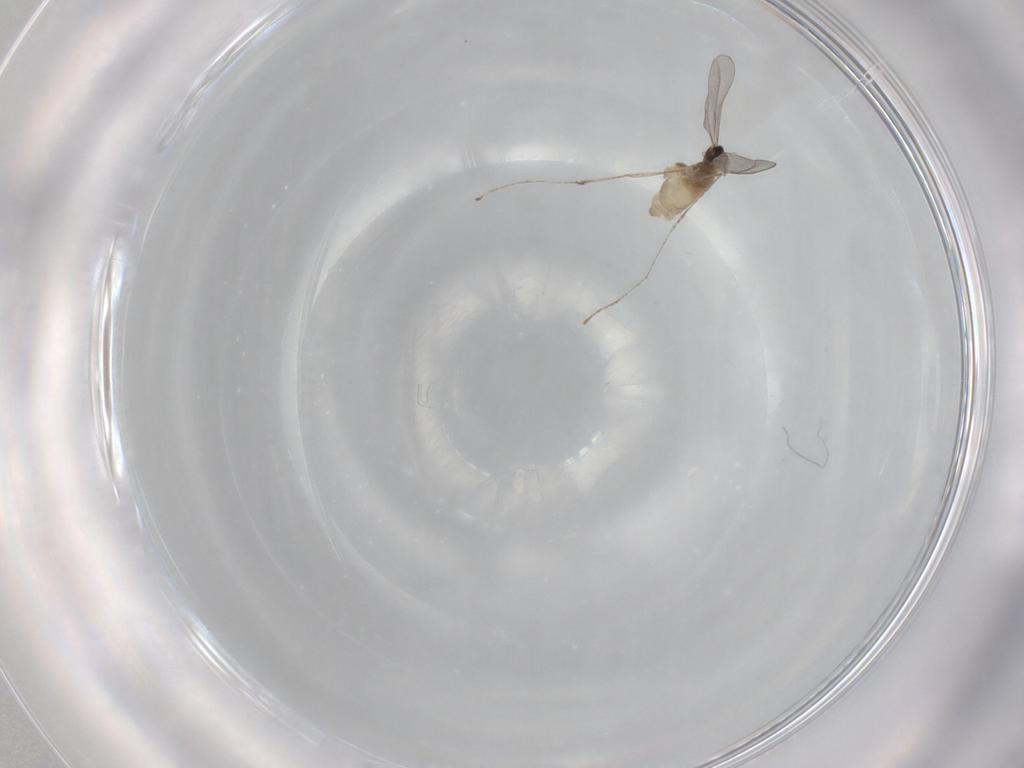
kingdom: Animalia
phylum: Arthropoda
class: Insecta
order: Diptera
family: Cecidomyiidae
